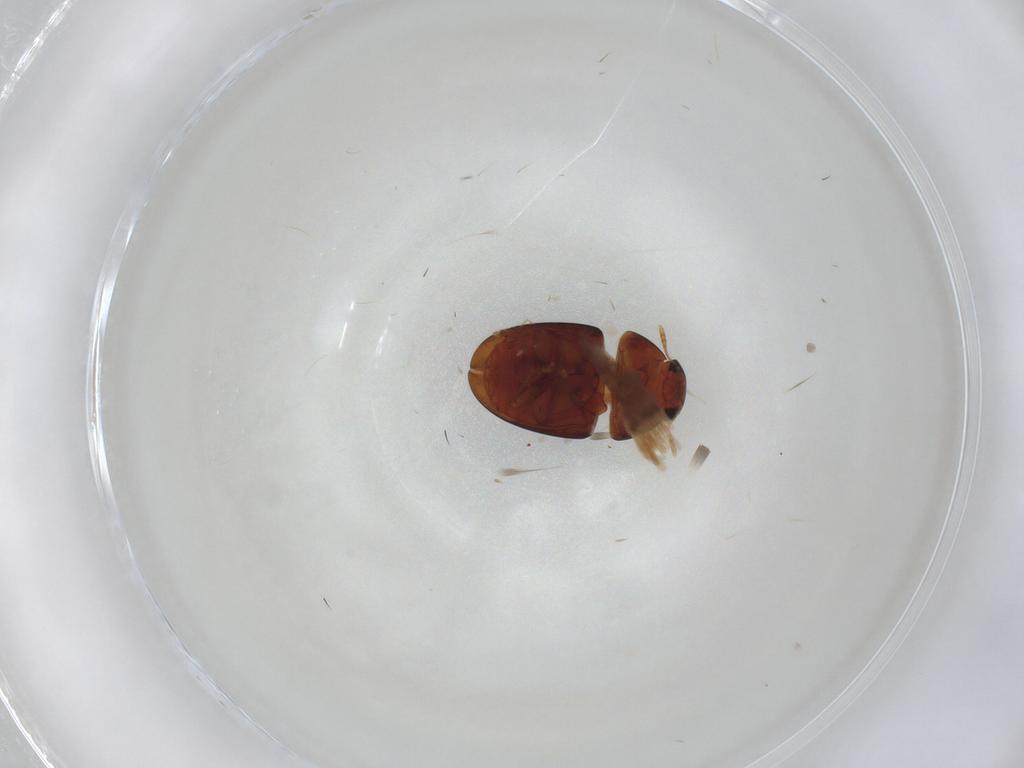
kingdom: Animalia
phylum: Arthropoda
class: Insecta
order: Coleoptera
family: Phalacridae
